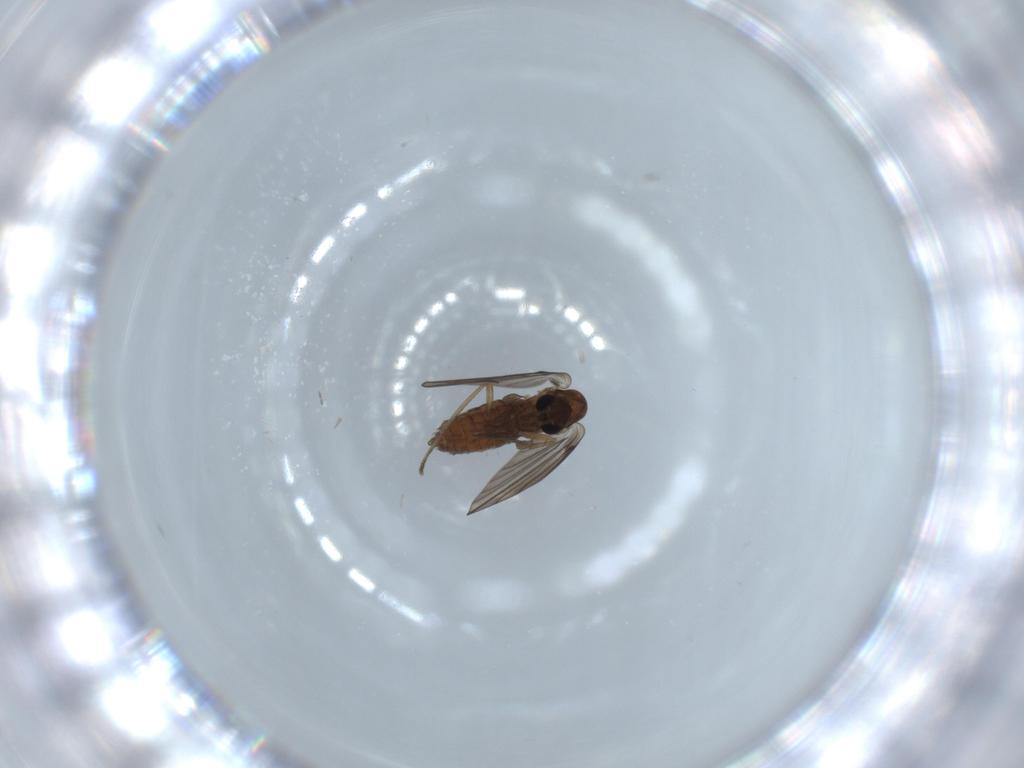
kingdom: Animalia
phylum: Arthropoda
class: Insecta
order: Diptera
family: Psychodidae
